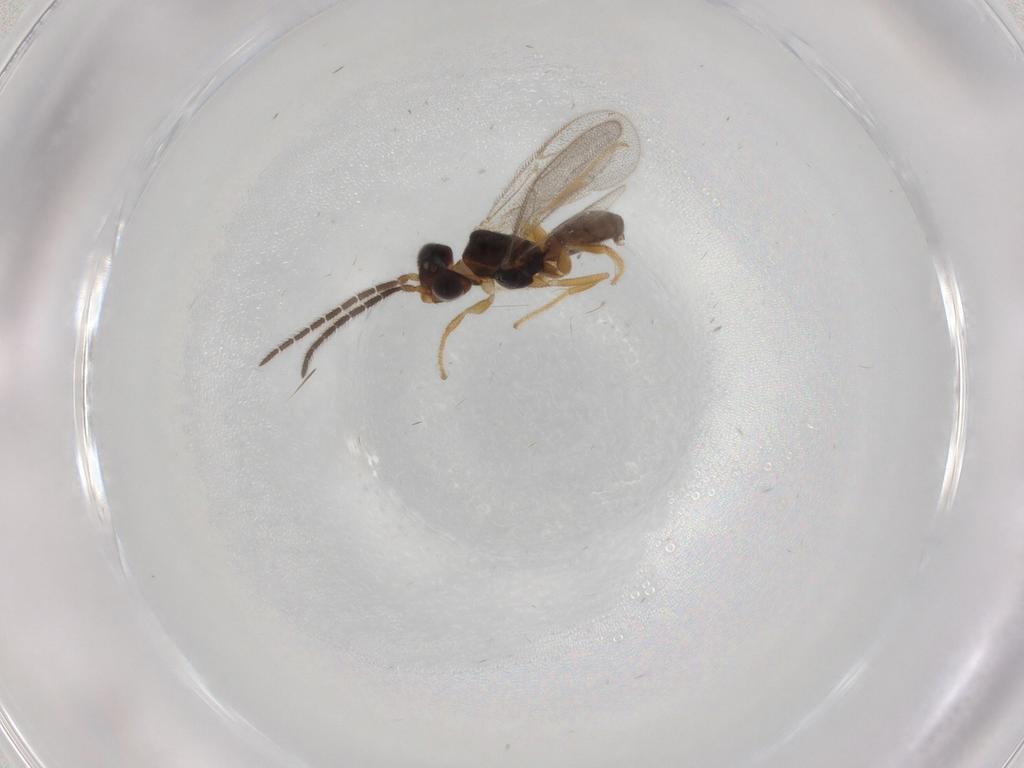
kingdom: Animalia
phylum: Arthropoda
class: Insecta
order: Hymenoptera
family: Dryinidae
